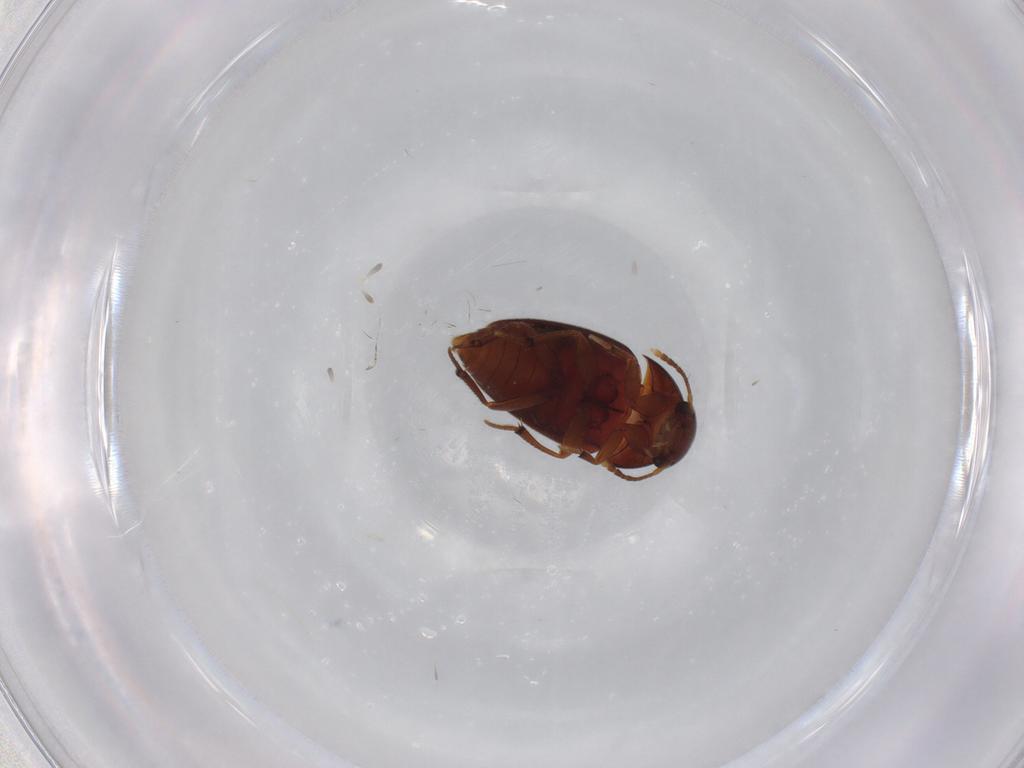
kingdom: Animalia
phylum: Arthropoda
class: Insecta
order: Coleoptera
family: Leiodidae
